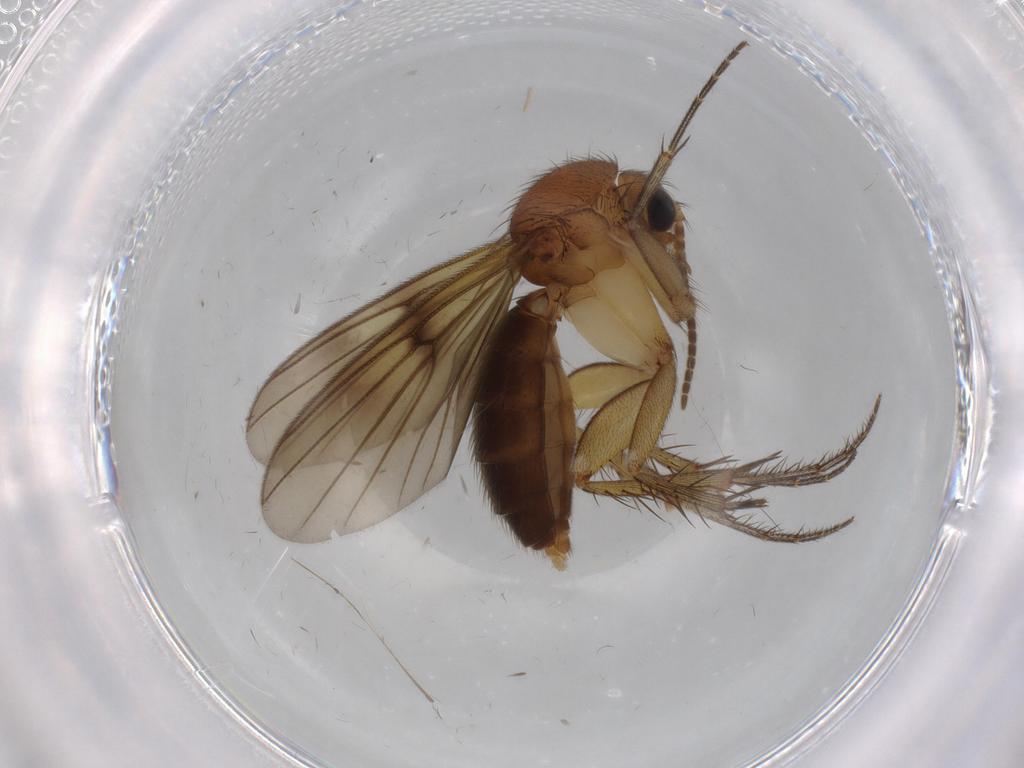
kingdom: Animalia
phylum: Arthropoda
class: Insecta
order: Diptera
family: Chironomidae
